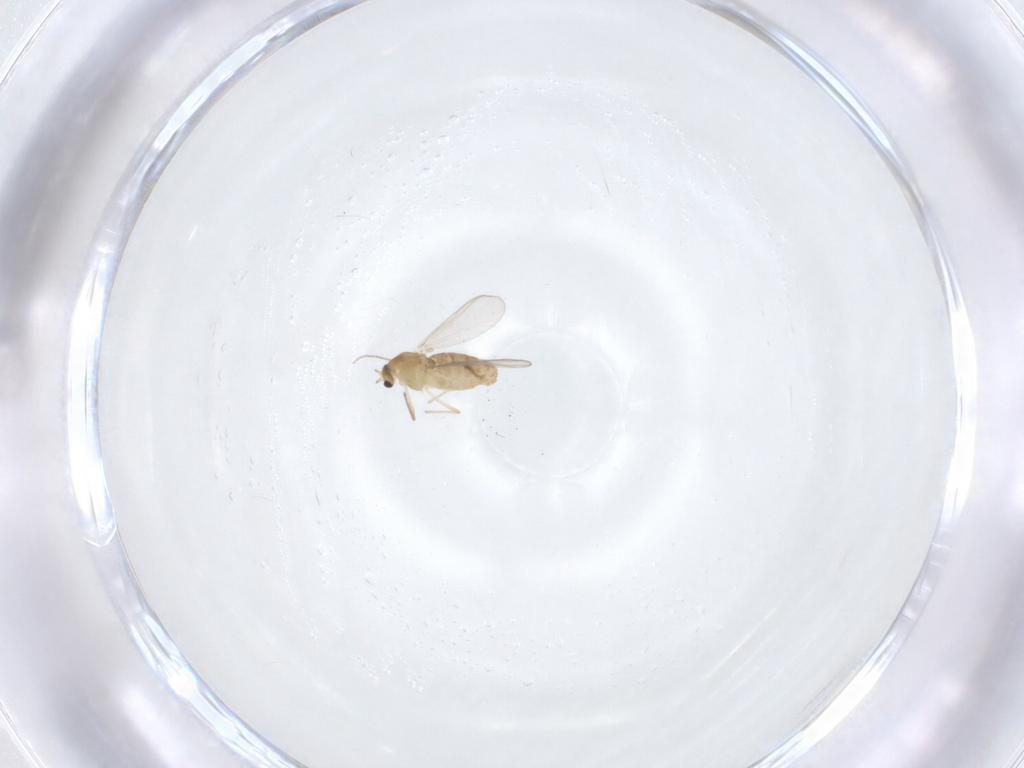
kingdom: Animalia
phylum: Arthropoda
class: Insecta
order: Diptera
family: Chironomidae
